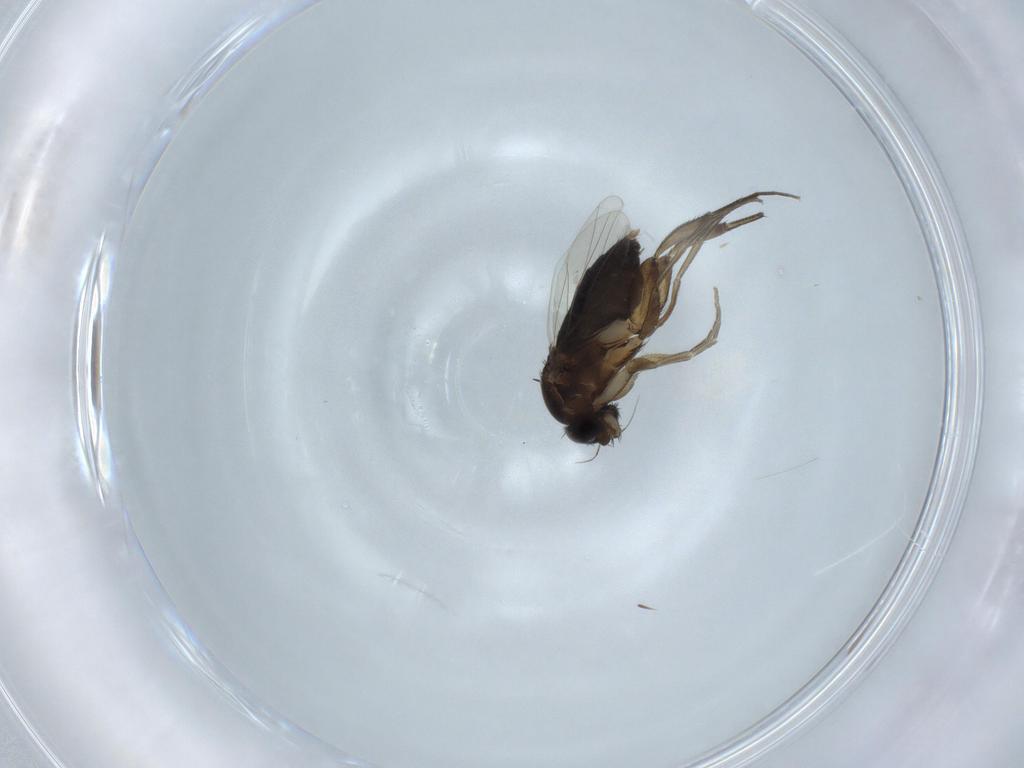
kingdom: Animalia
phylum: Arthropoda
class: Insecta
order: Diptera
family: Phoridae
